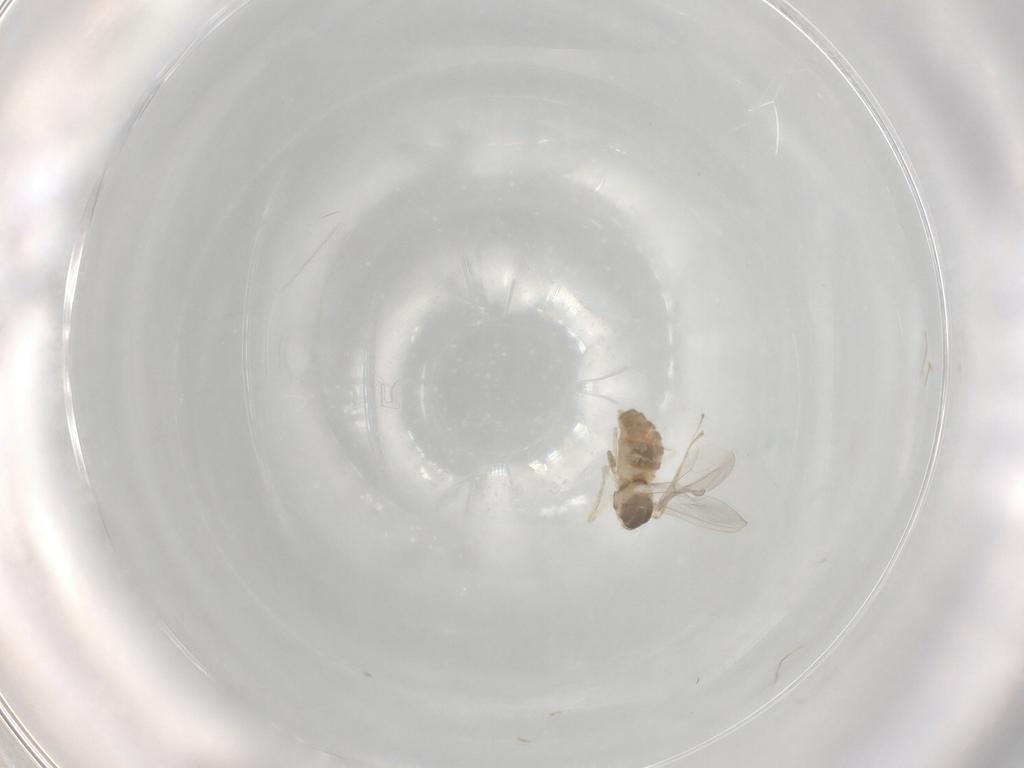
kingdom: Animalia
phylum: Arthropoda
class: Insecta
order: Diptera
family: Cecidomyiidae
